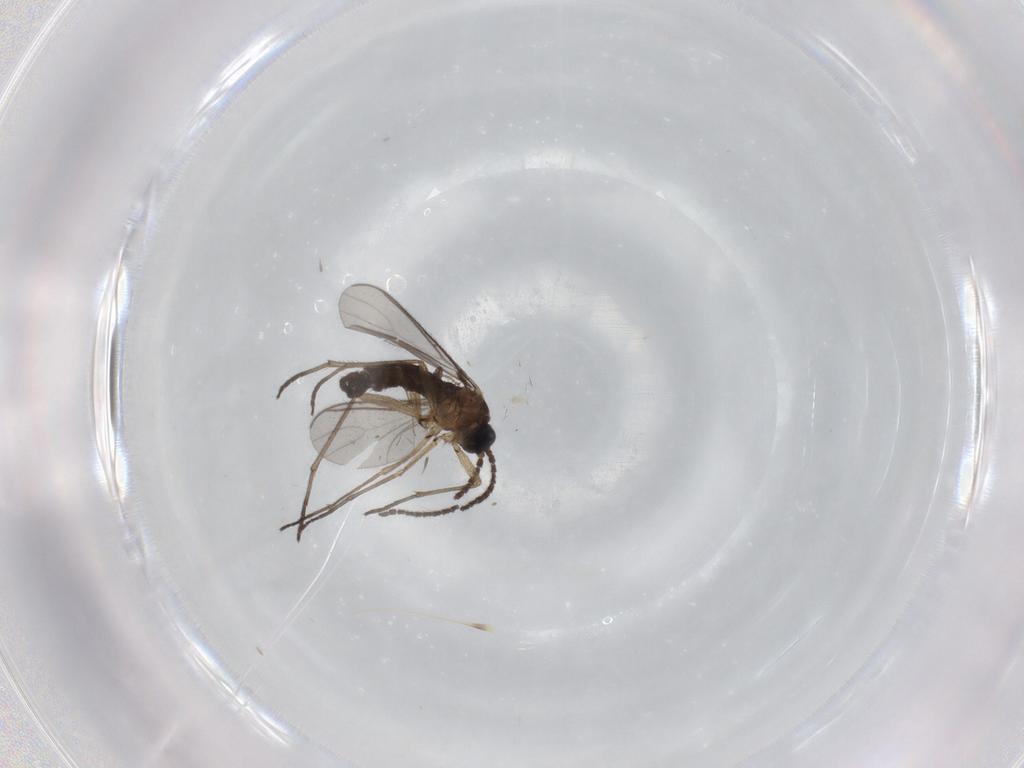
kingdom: Animalia
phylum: Arthropoda
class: Insecta
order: Diptera
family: Sciaridae
